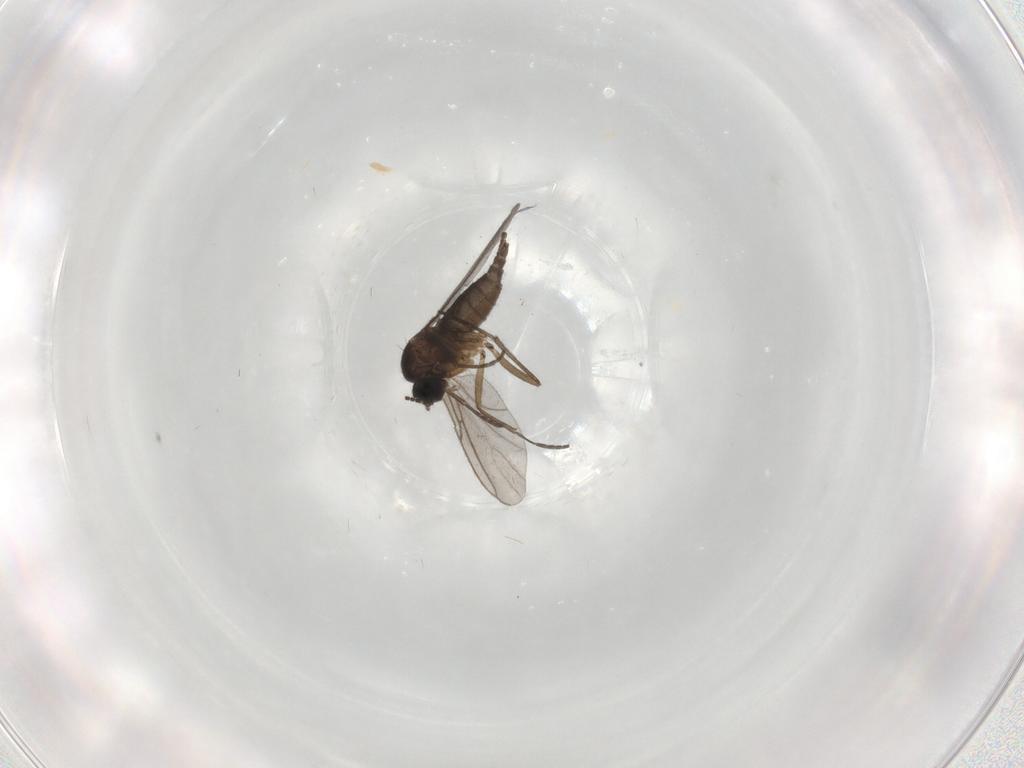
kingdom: Animalia
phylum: Arthropoda
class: Insecta
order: Diptera
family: Sciaridae
